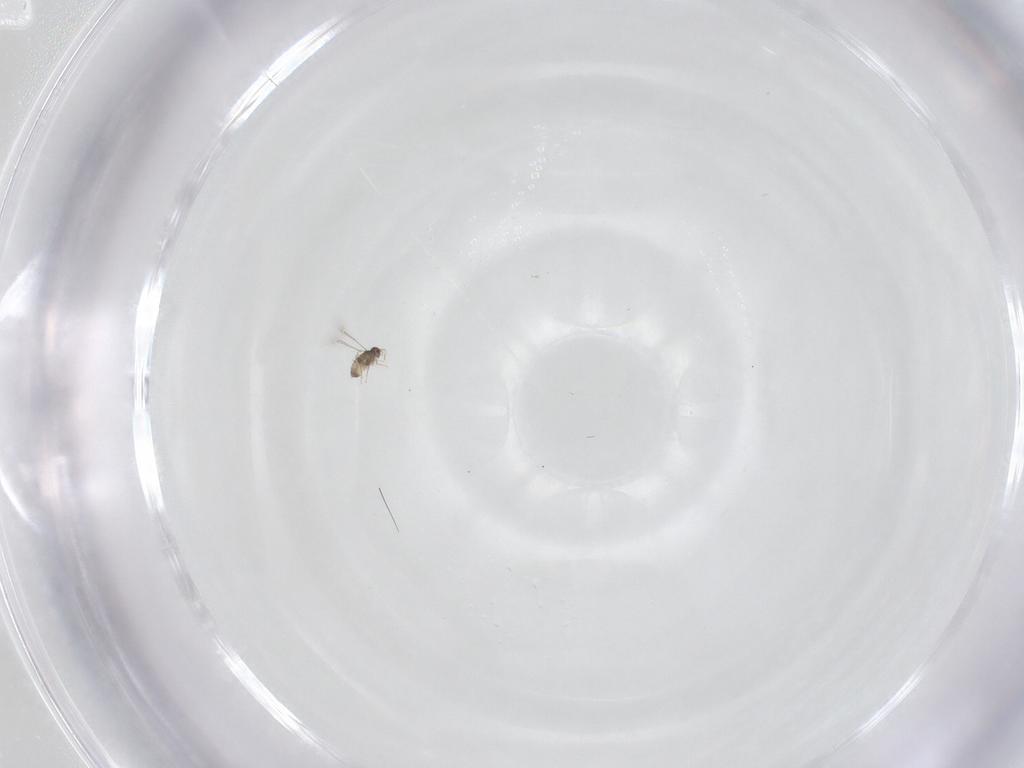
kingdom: Animalia
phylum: Arthropoda
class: Insecta
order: Hymenoptera
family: Mymaridae
